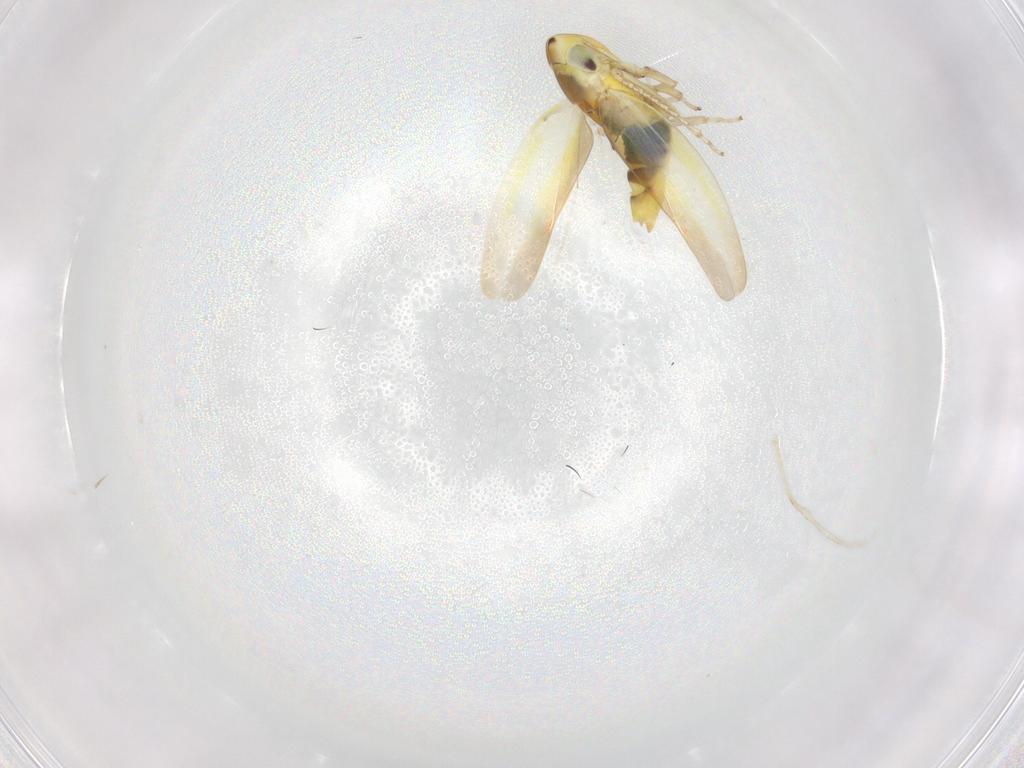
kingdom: Animalia
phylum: Arthropoda
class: Insecta
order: Hemiptera
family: Cicadellidae
